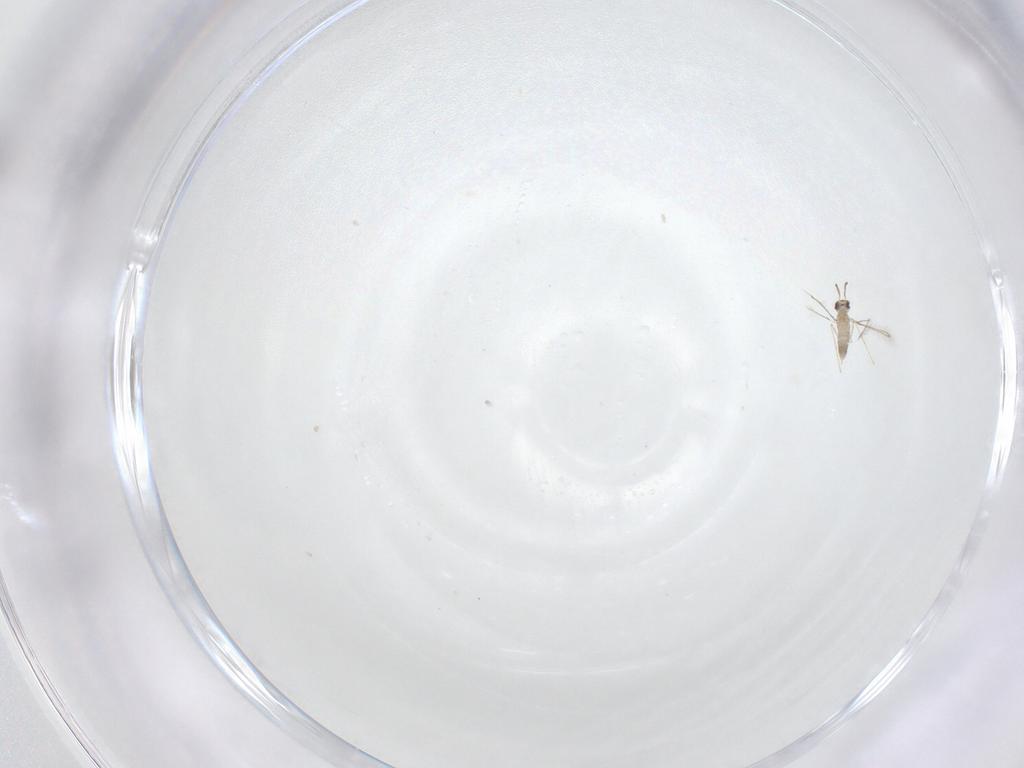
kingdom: Animalia
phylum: Arthropoda
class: Insecta
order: Hymenoptera
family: Mymaridae
